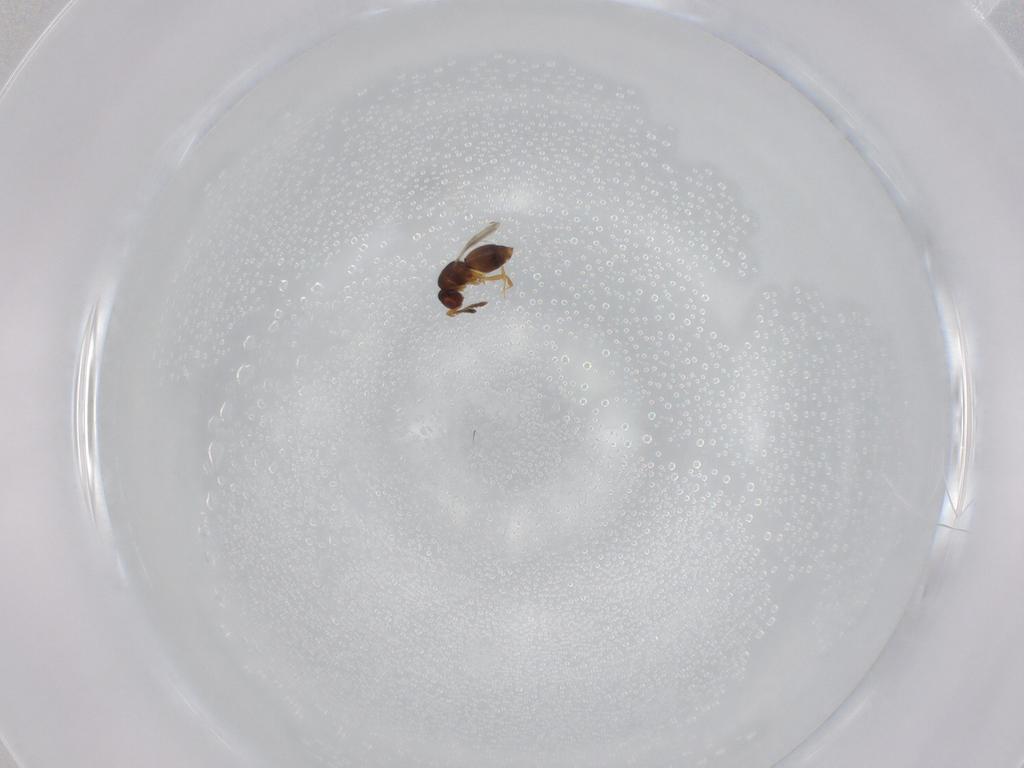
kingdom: Animalia
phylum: Arthropoda
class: Insecta
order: Hymenoptera
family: Ceraphronidae
